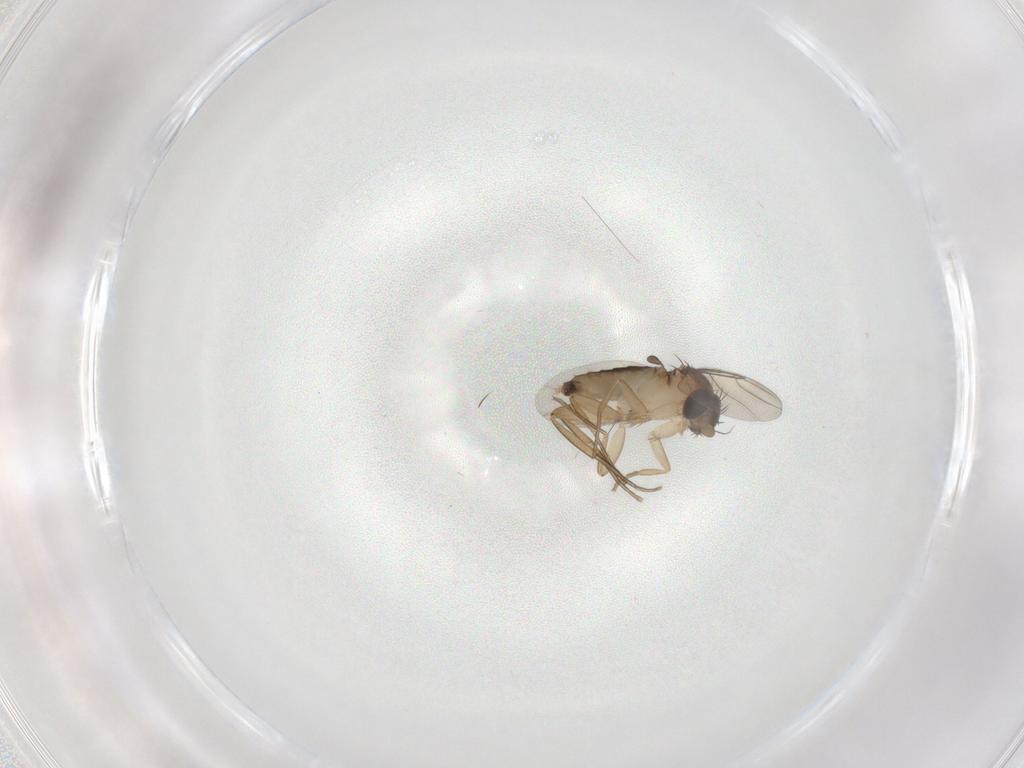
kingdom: Animalia
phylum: Arthropoda
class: Insecta
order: Diptera
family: Phoridae
